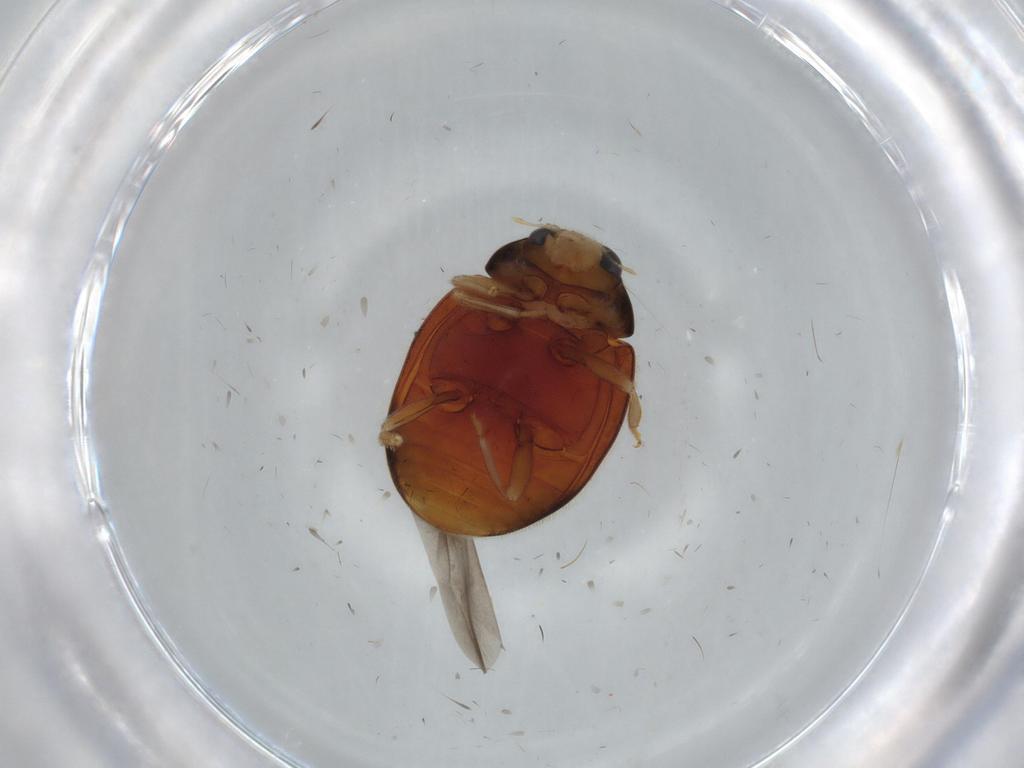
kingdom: Animalia
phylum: Arthropoda
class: Insecta
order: Coleoptera
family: Coccinellidae
